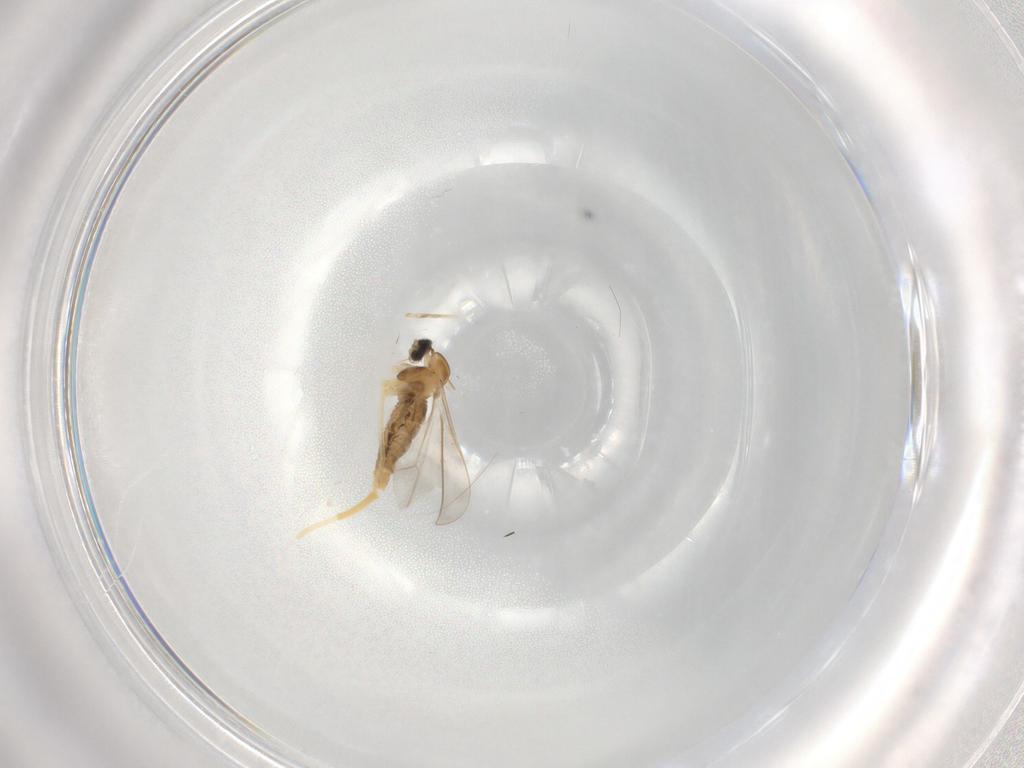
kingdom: Animalia
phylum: Arthropoda
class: Insecta
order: Diptera
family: Cecidomyiidae
